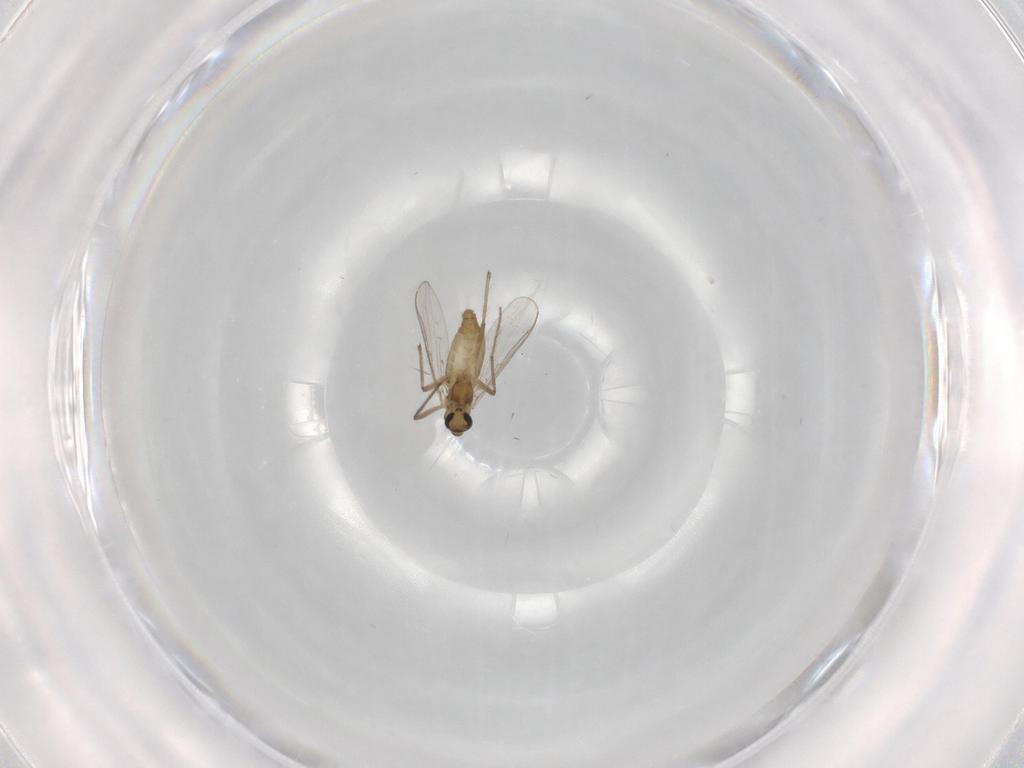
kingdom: Animalia
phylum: Arthropoda
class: Insecta
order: Diptera
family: Chironomidae
